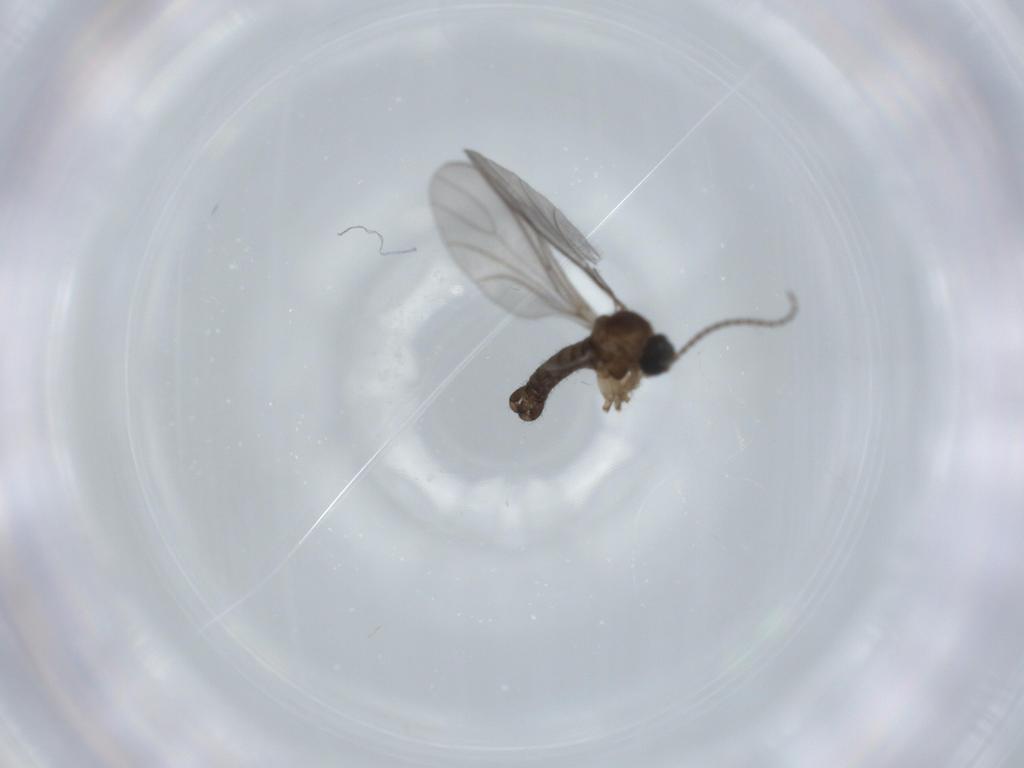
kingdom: Animalia
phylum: Arthropoda
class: Insecta
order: Diptera
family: Sciaridae
